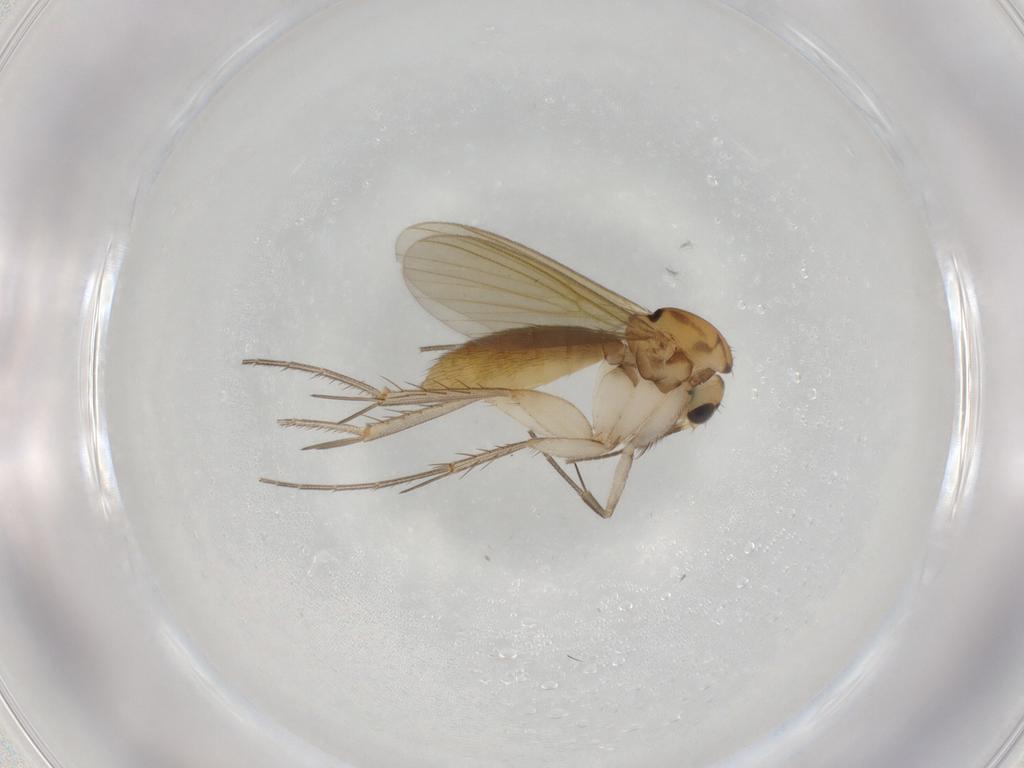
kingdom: Animalia
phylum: Arthropoda
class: Insecta
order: Diptera
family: Mycetophilidae
